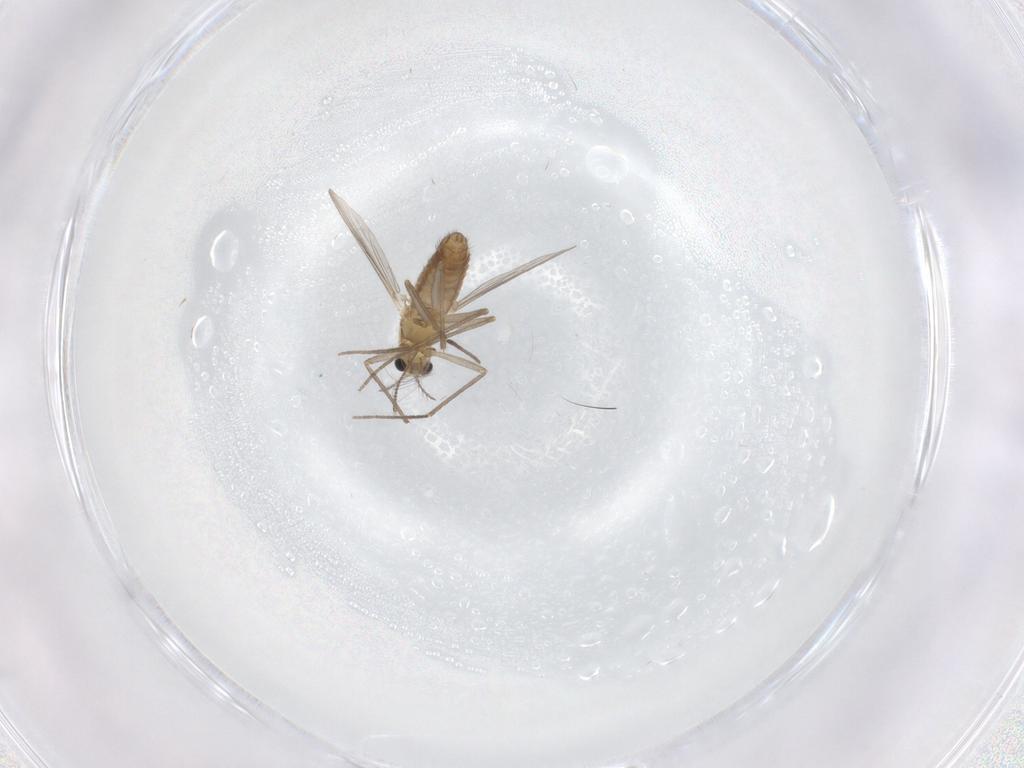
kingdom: Animalia
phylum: Arthropoda
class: Insecta
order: Diptera
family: Chironomidae
